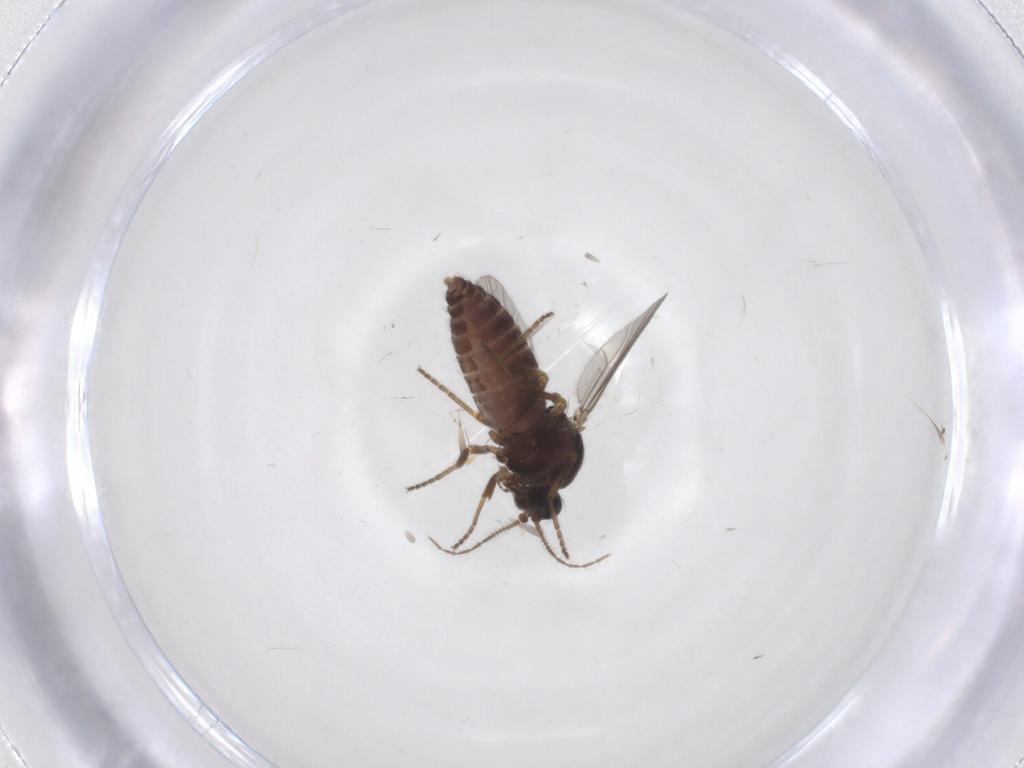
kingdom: Animalia
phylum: Arthropoda
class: Insecta
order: Diptera
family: Ceratopogonidae
